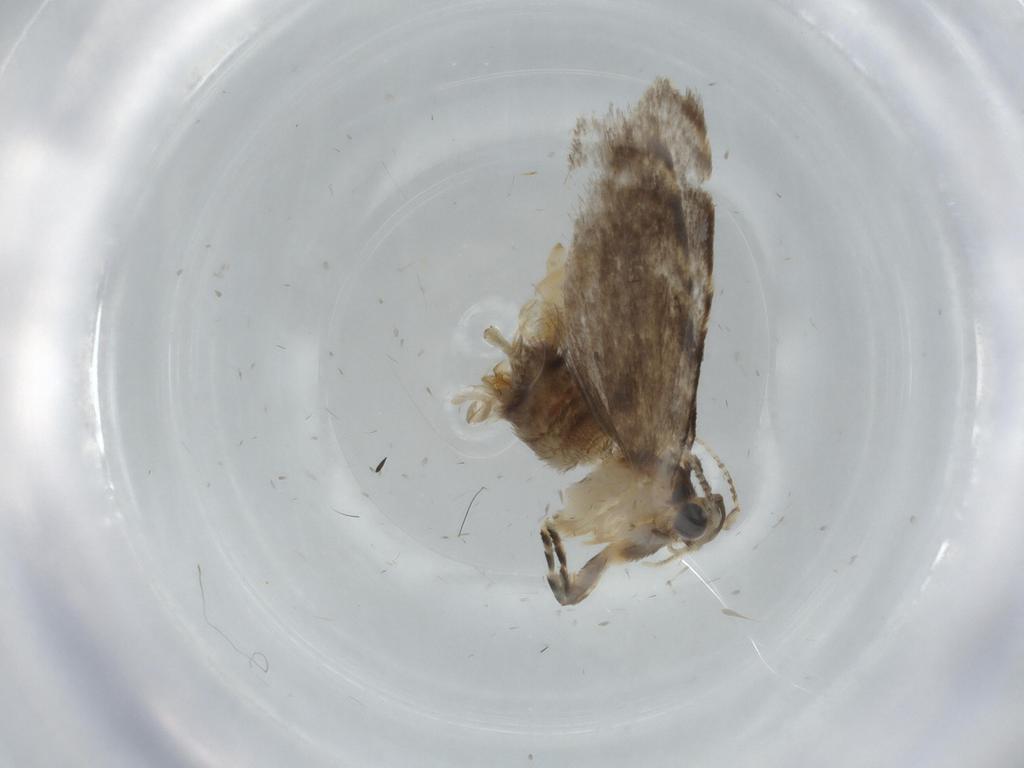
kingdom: Animalia
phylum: Arthropoda
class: Insecta
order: Lepidoptera
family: Tineidae
